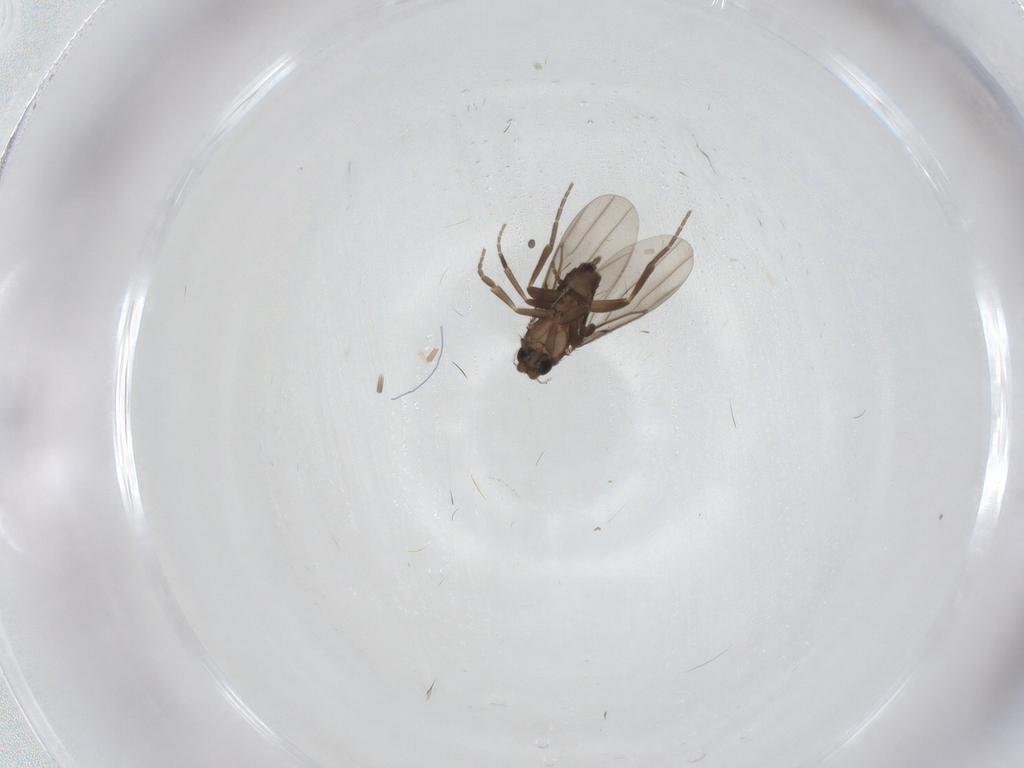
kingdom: Animalia
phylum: Arthropoda
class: Insecta
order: Diptera
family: Phoridae
